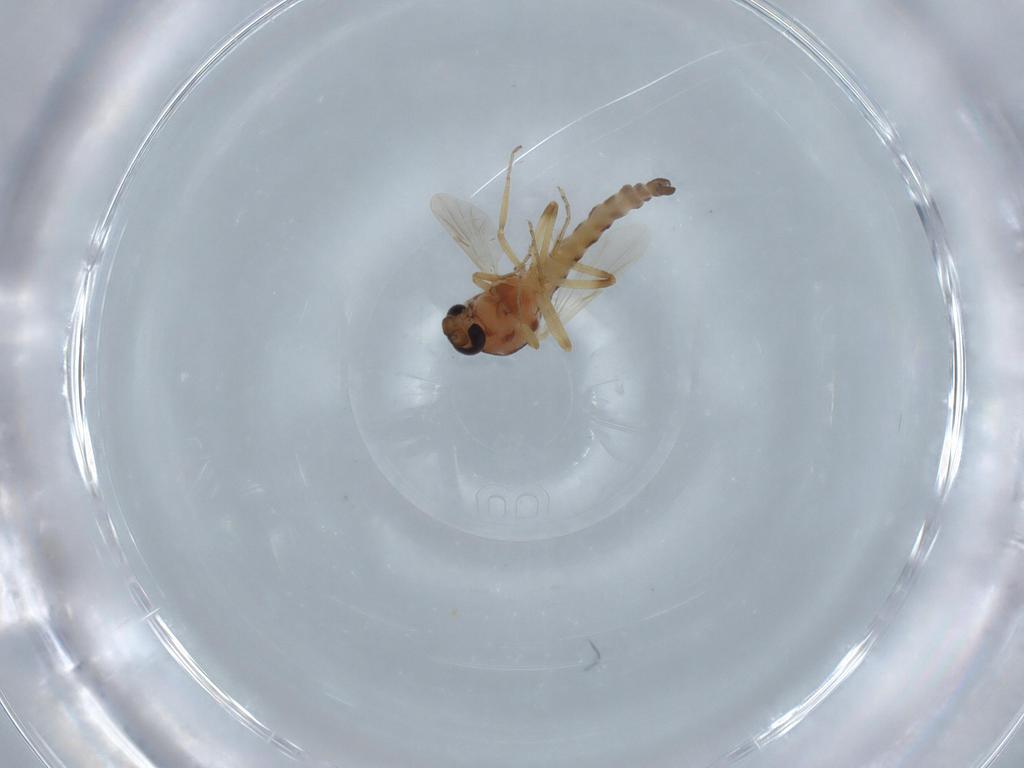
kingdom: Animalia
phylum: Arthropoda
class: Insecta
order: Diptera
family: Ceratopogonidae
